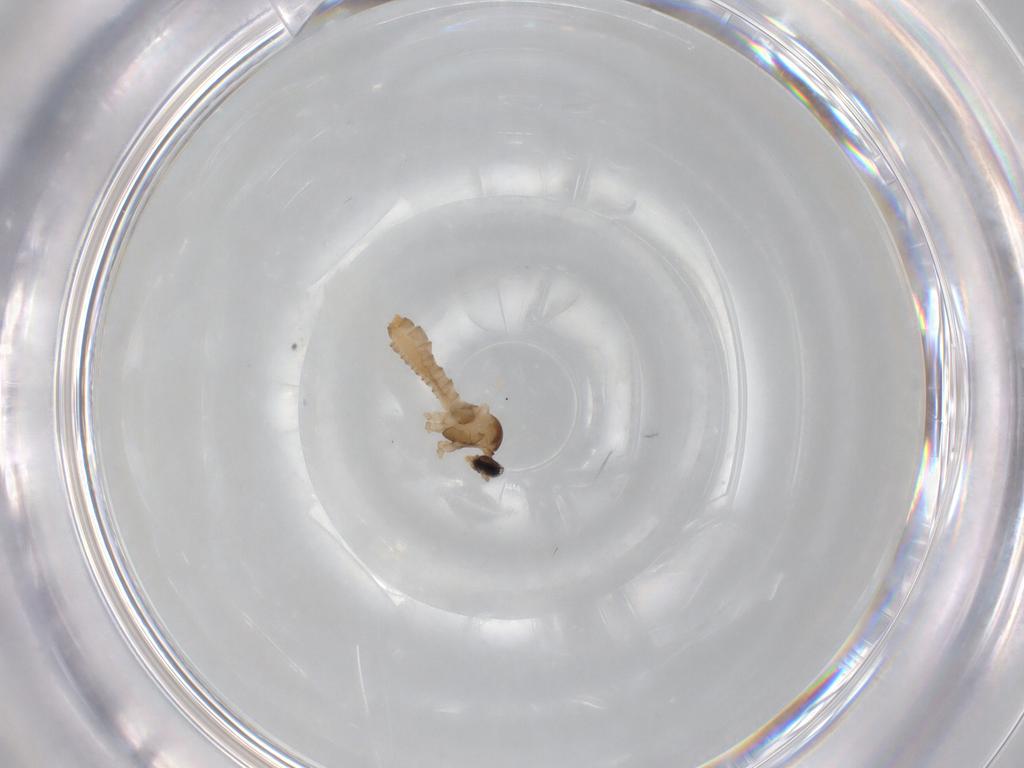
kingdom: Animalia
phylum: Arthropoda
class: Insecta
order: Diptera
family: Cecidomyiidae
